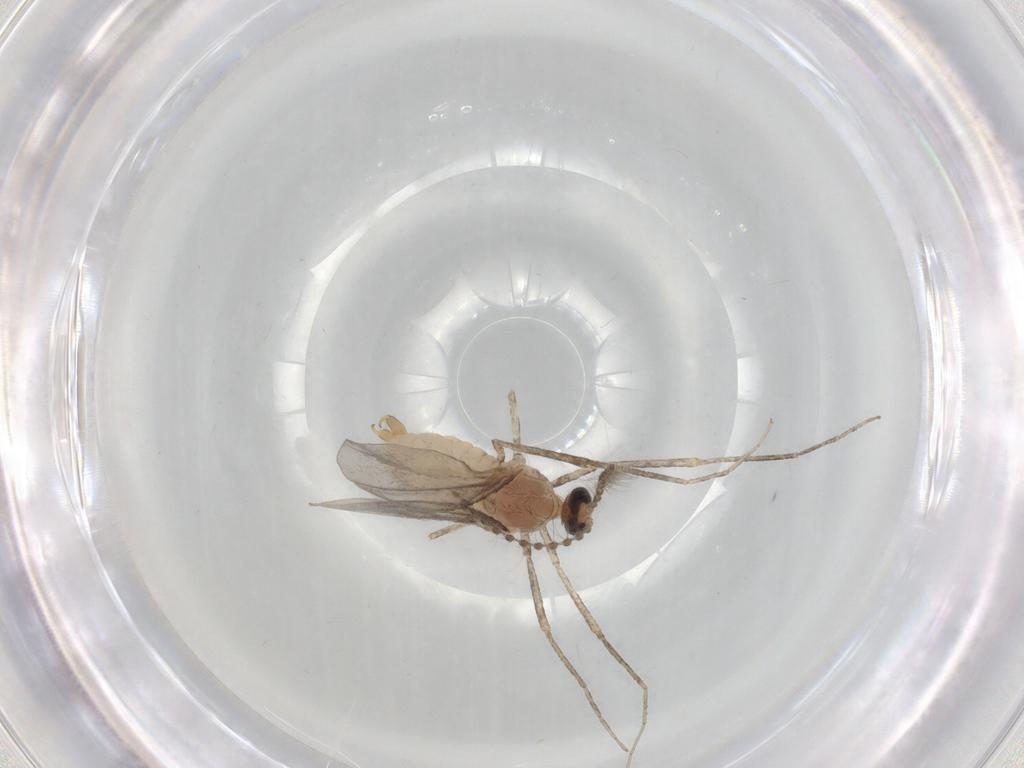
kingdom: Animalia
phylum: Arthropoda
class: Insecta
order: Diptera
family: Cecidomyiidae
